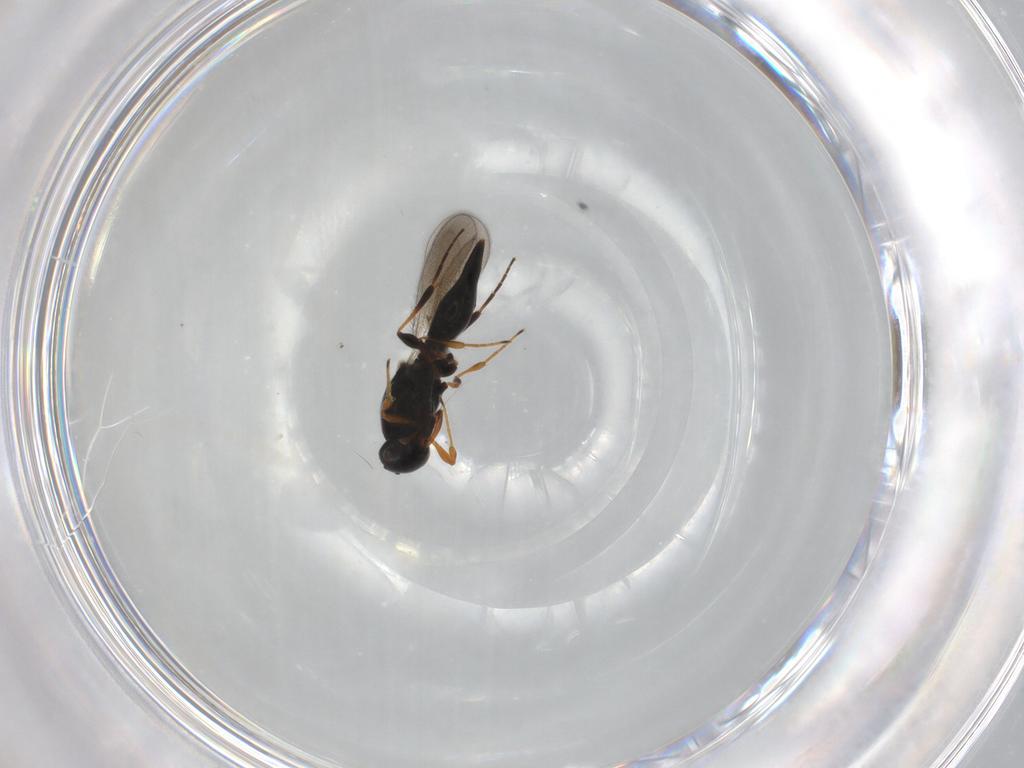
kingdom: Animalia
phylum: Arthropoda
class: Insecta
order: Hymenoptera
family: Platygastridae
